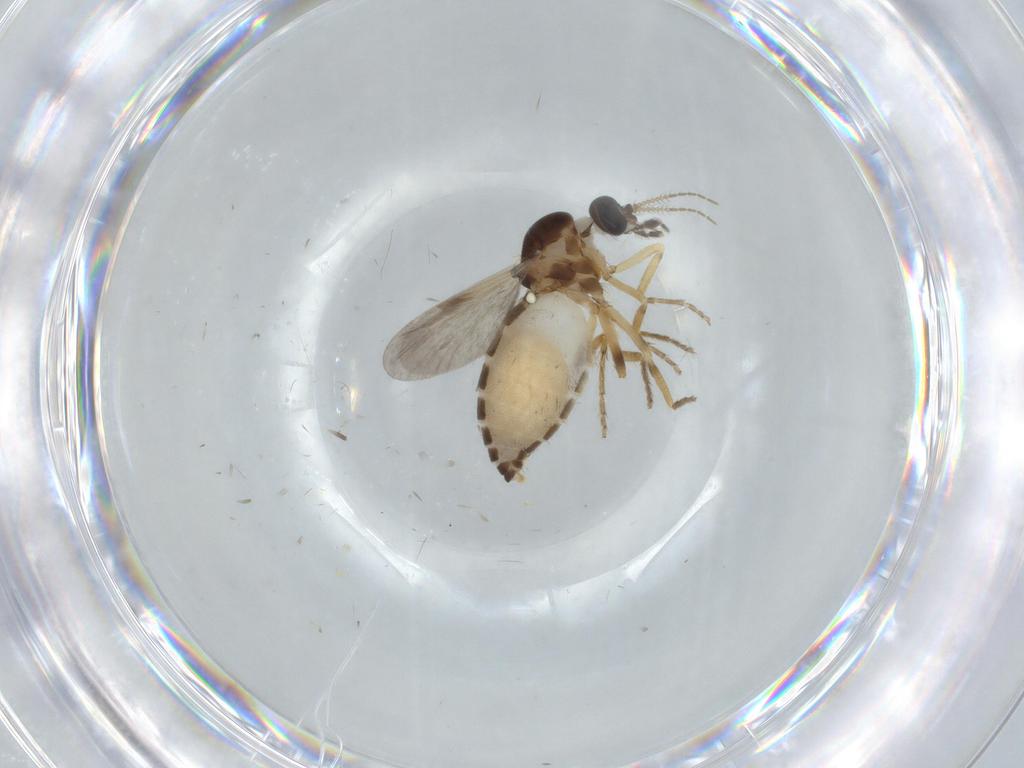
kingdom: Animalia
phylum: Arthropoda
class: Insecta
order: Diptera
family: Ceratopogonidae
